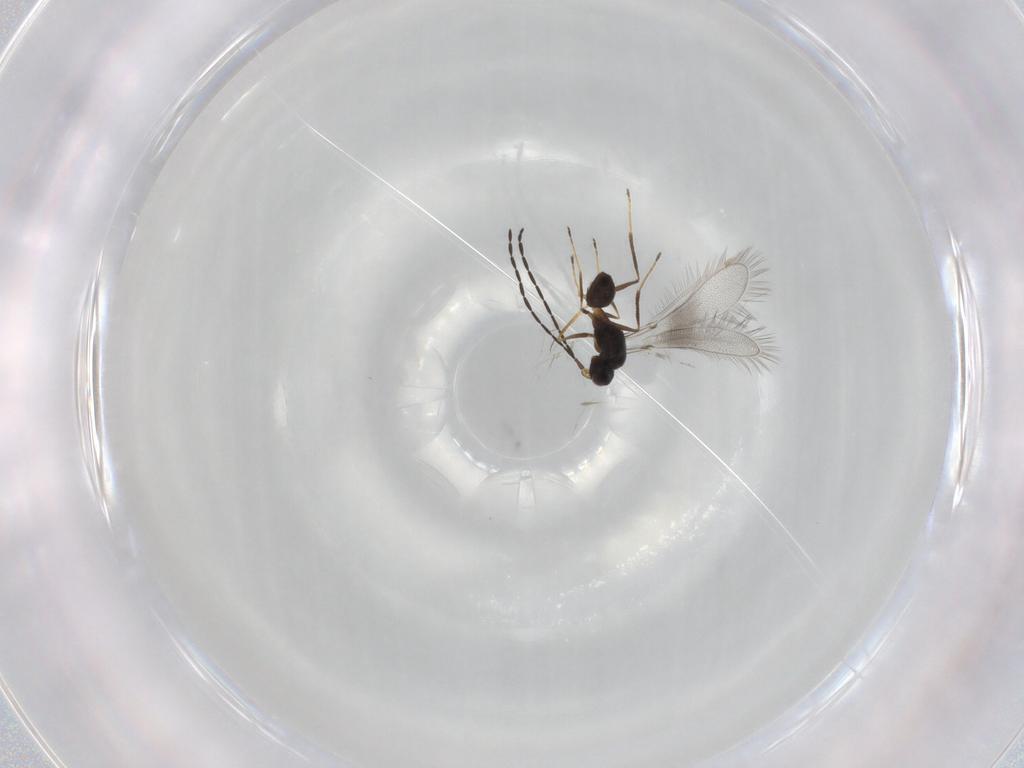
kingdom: Animalia
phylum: Arthropoda
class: Insecta
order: Hymenoptera
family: Mymaridae
